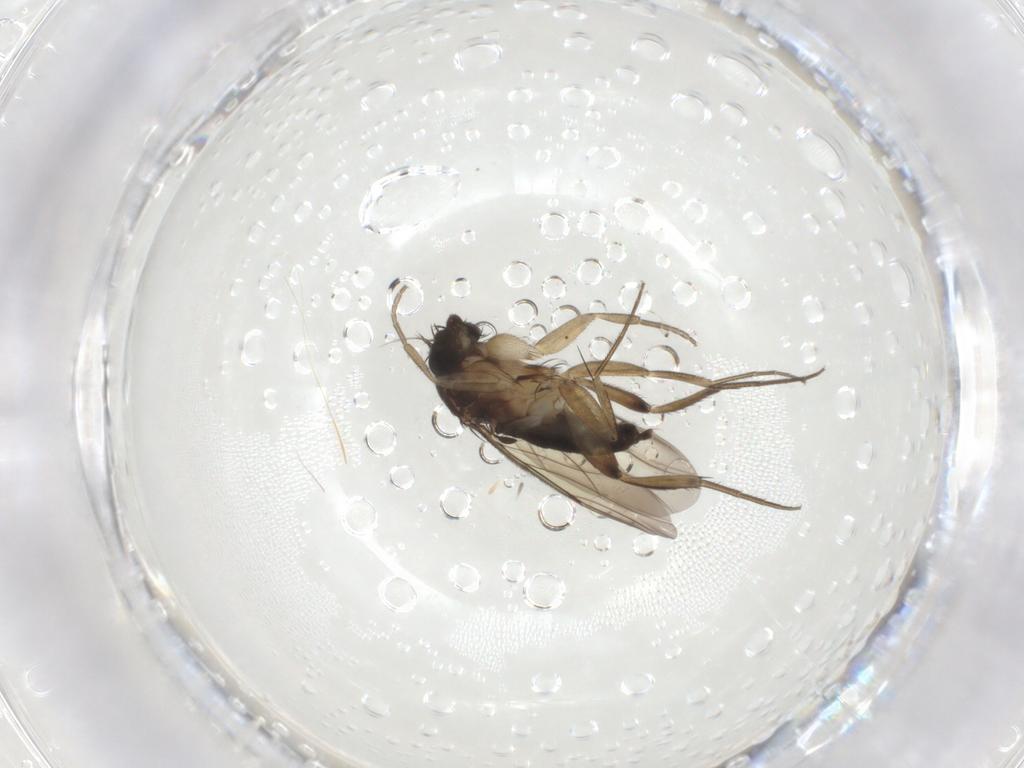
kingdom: Animalia
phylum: Arthropoda
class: Insecta
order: Diptera
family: Phoridae
